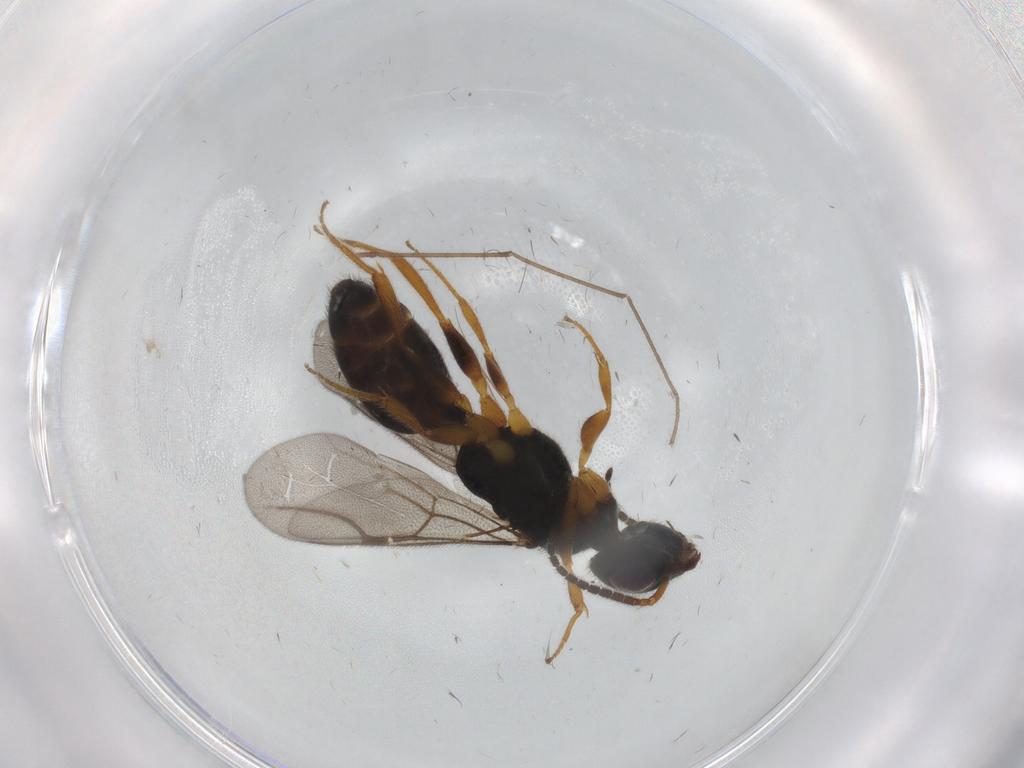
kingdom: Animalia
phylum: Arthropoda
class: Insecta
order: Hymenoptera
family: Bethylidae
